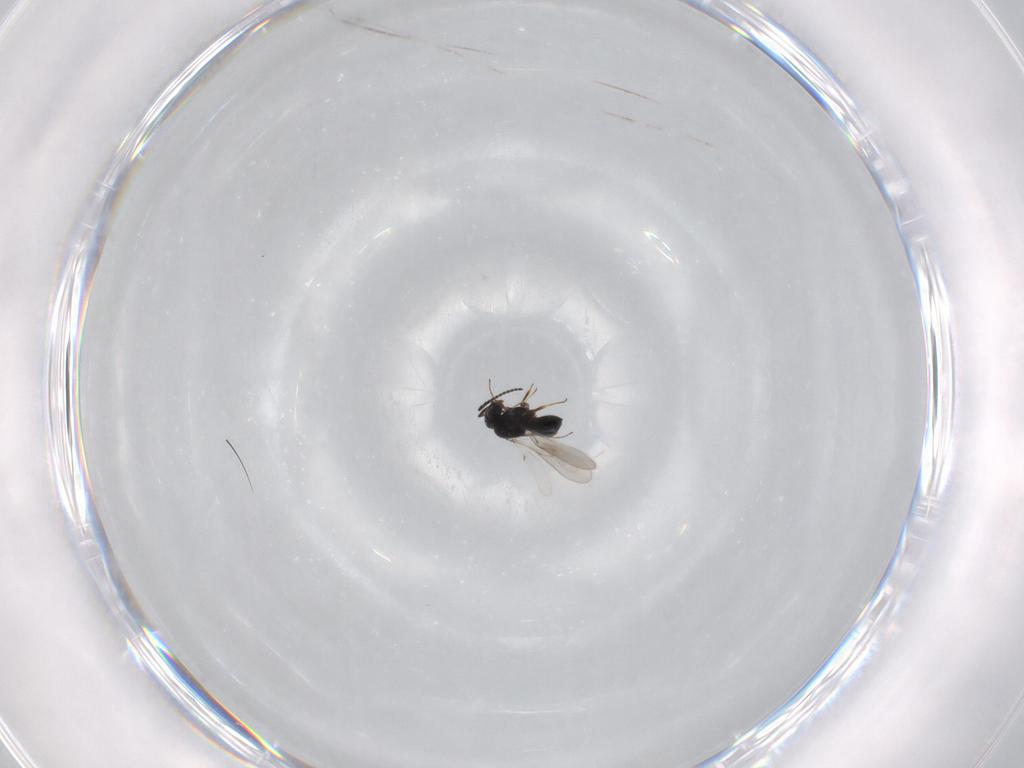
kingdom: Animalia
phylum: Arthropoda
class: Insecta
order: Hymenoptera
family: Scelionidae
